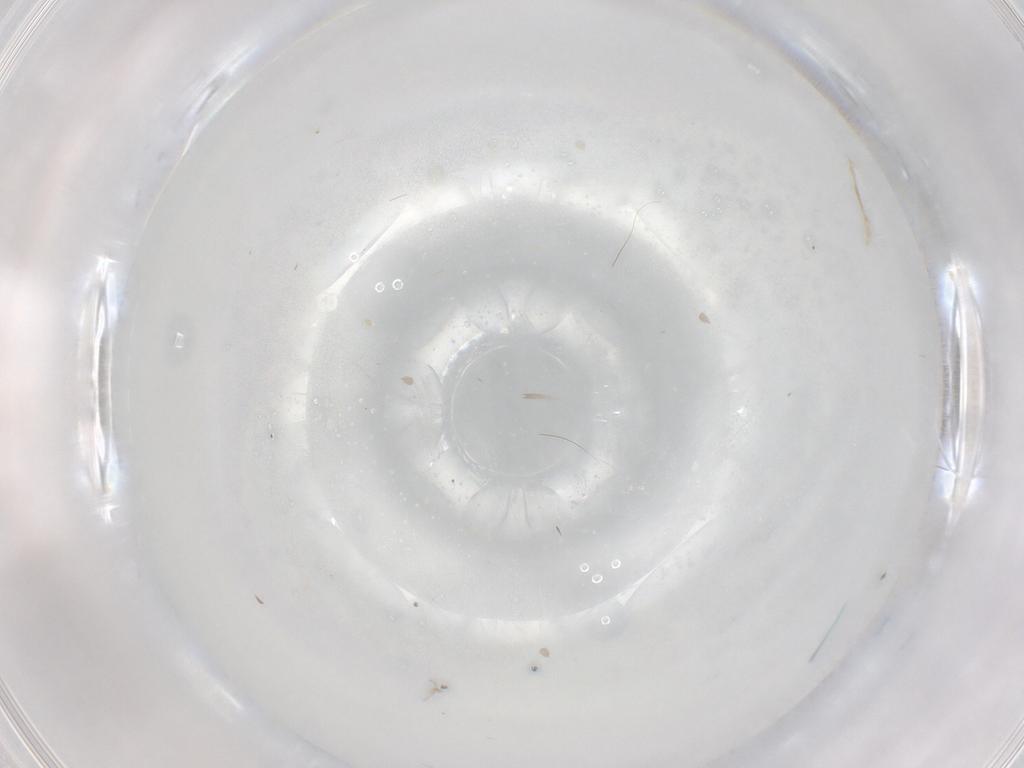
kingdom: Animalia
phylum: Arthropoda
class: Insecta
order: Diptera
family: Cecidomyiidae
